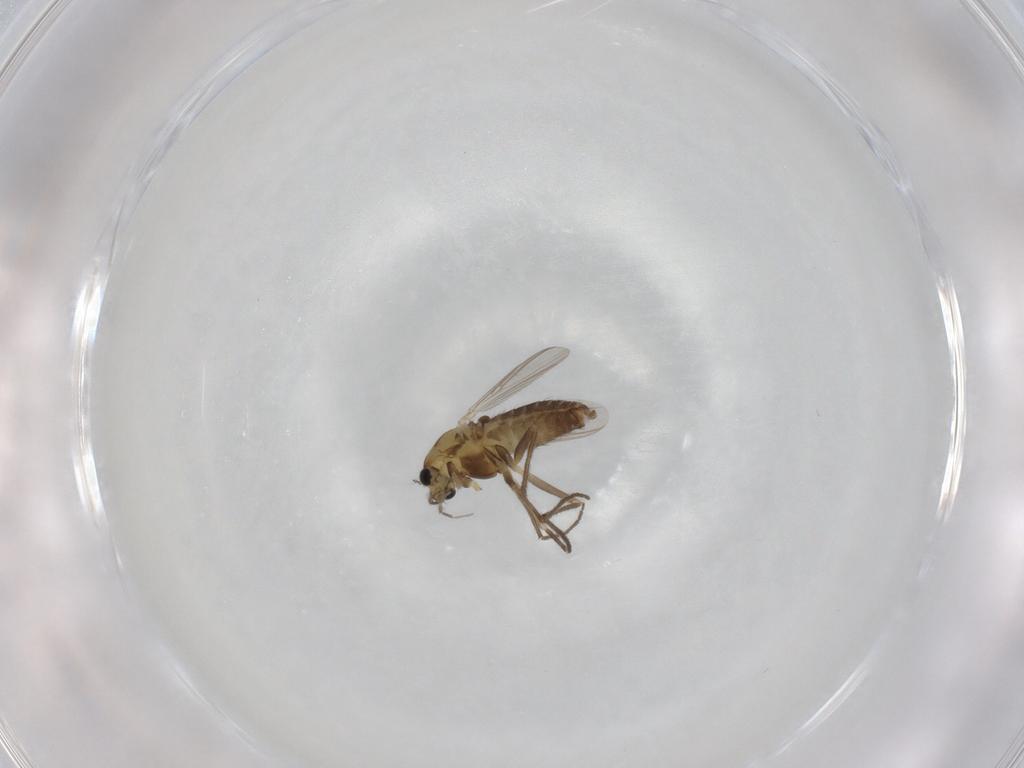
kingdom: Animalia
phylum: Arthropoda
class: Insecta
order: Diptera
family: Chironomidae
